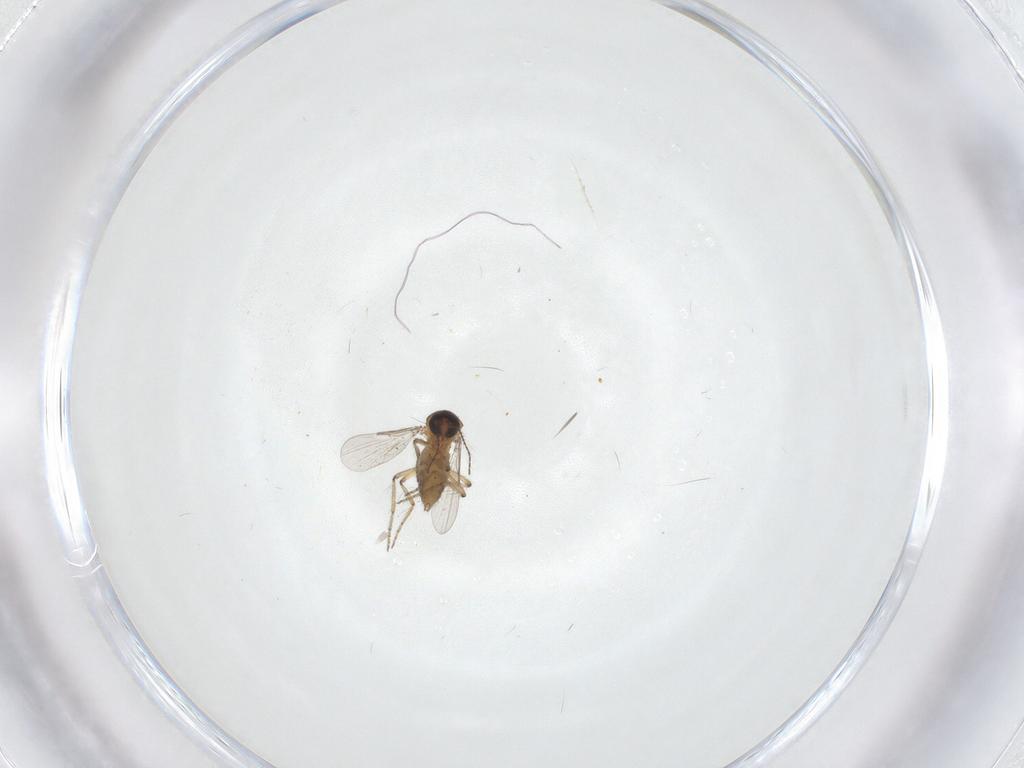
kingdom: Animalia
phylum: Arthropoda
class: Insecta
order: Diptera
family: Ceratopogonidae
